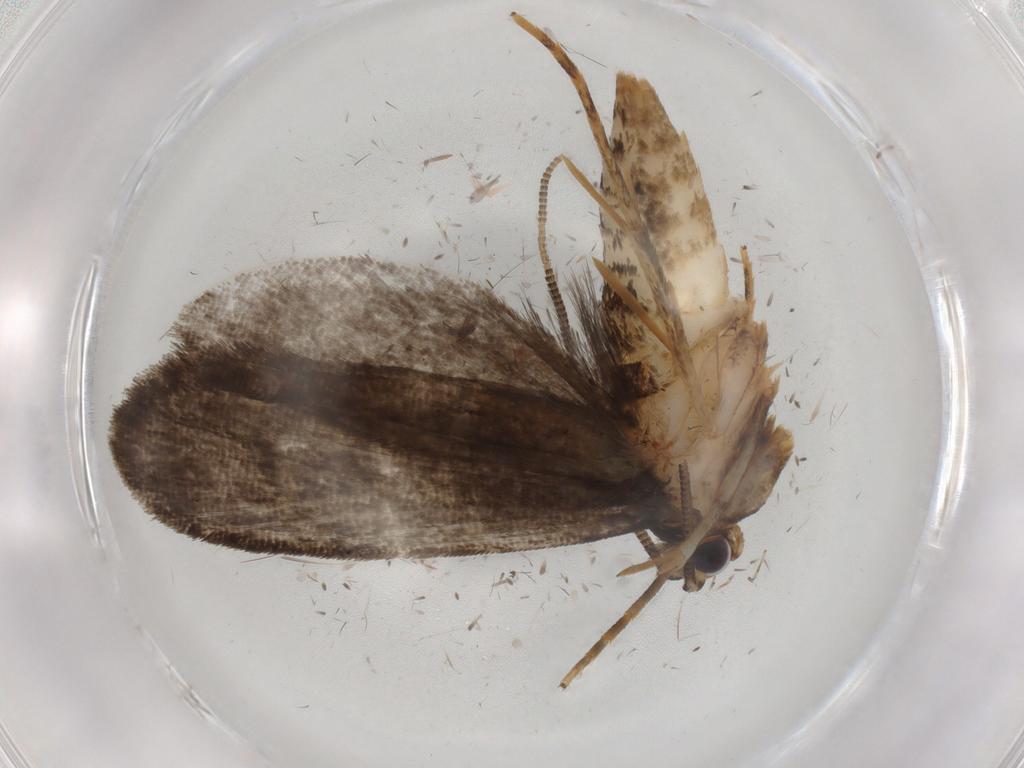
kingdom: Animalia
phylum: Arthropoda
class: Insecta
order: Lepidoptera
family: Tineidae
